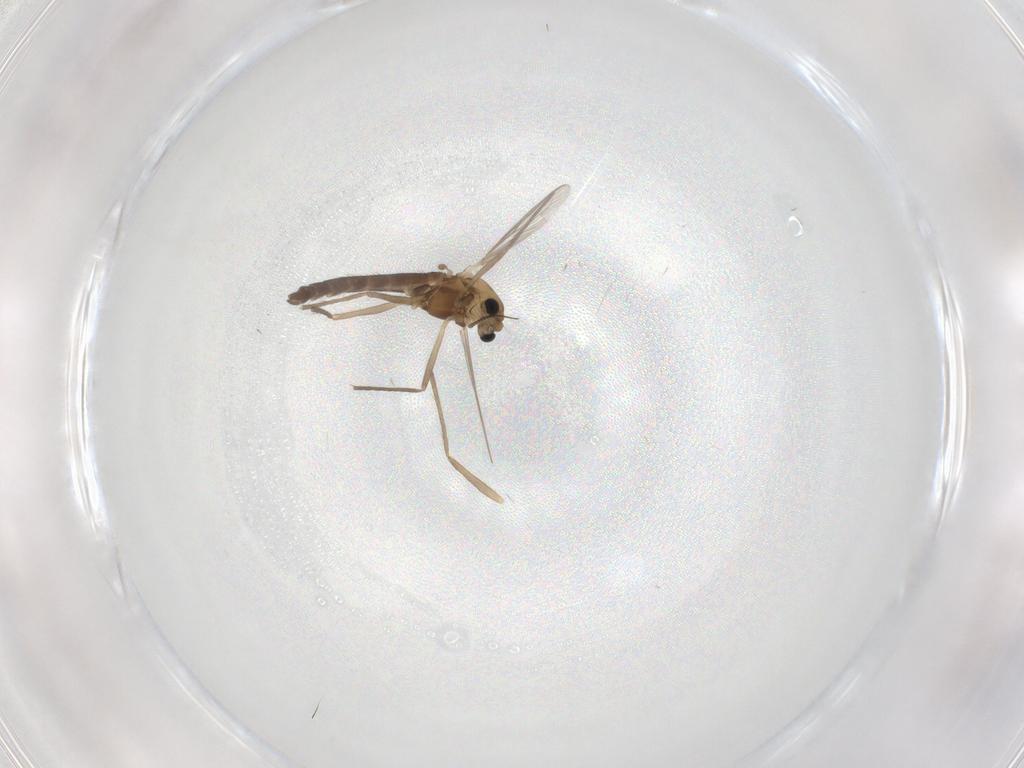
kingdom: Animalia
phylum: Arthropoda
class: Insecta
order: Diptera
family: Chironomidae
